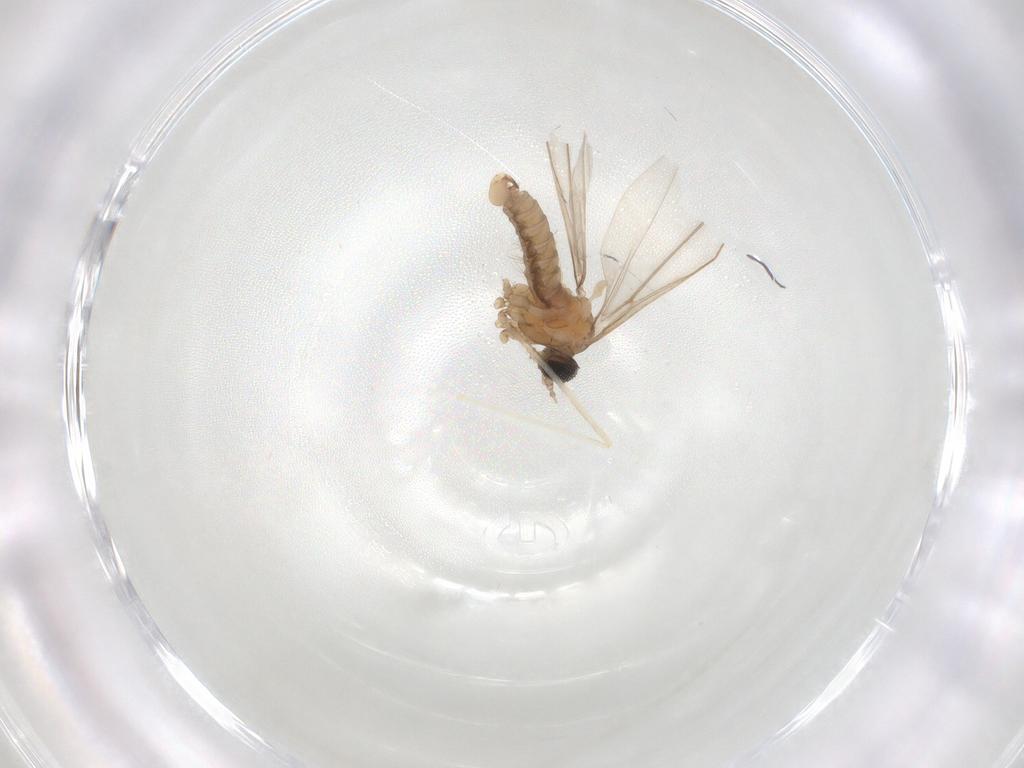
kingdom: Animalia
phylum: Arthropoda
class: Insecta
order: Diptera
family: Cecidomyiidae
